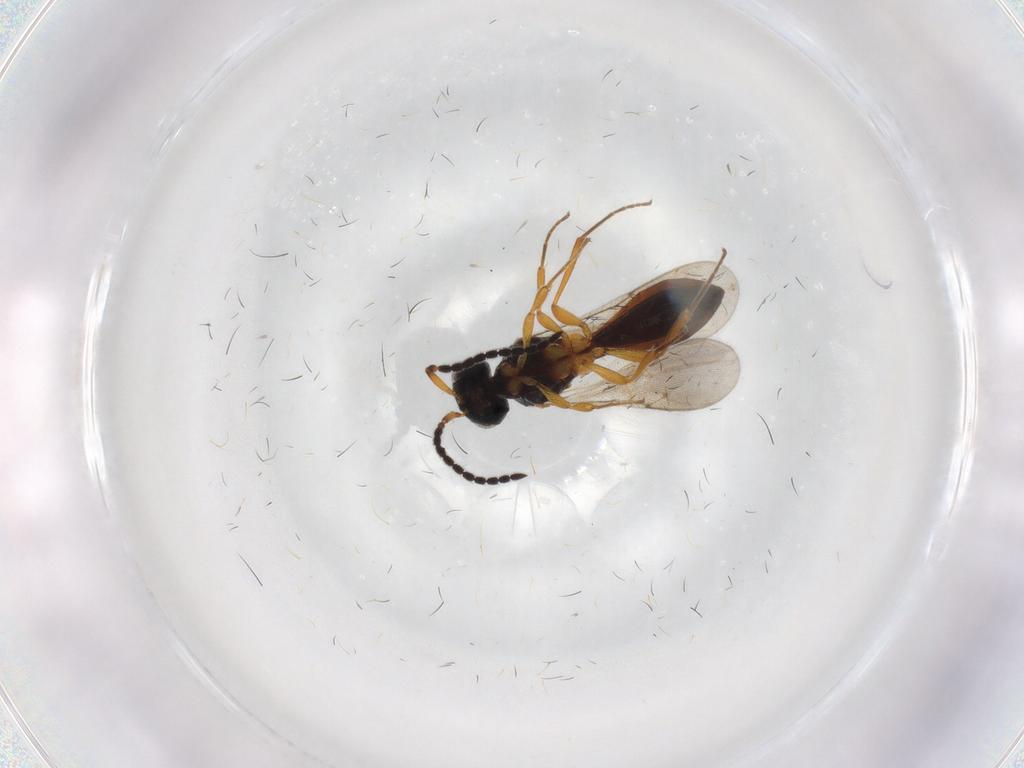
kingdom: Animalia
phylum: Arthropoda
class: Insecta
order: Hymenoptera
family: Scelionidae
